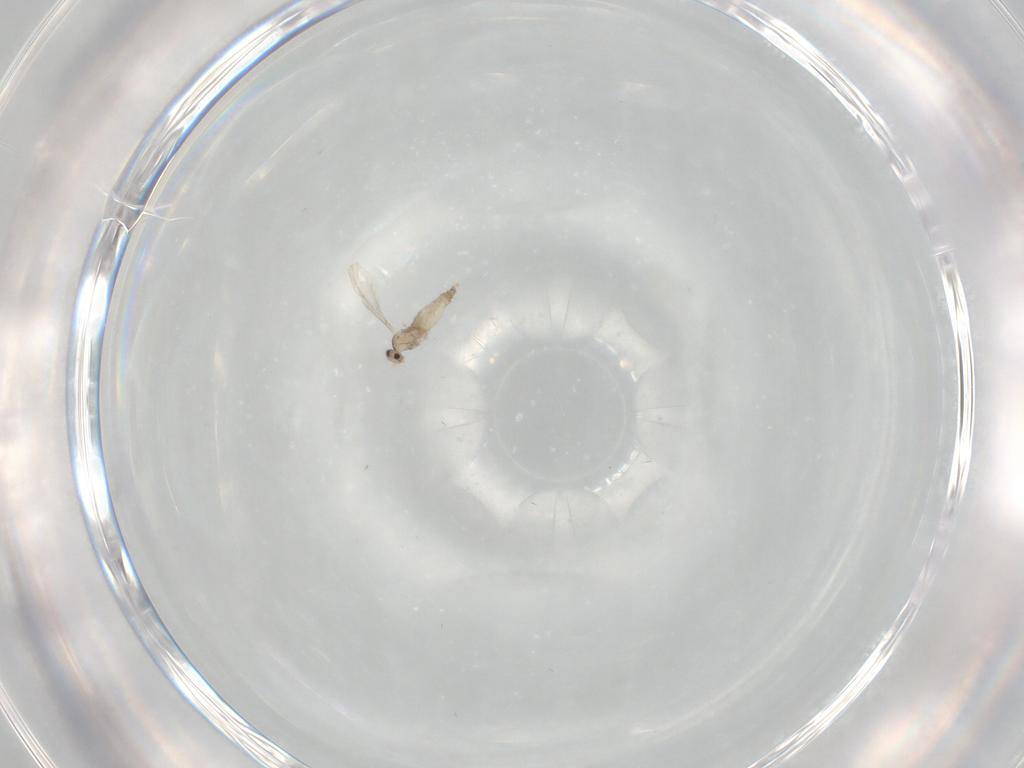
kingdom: Animalia
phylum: Arthropoda
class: Insecta
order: Diptera
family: Cecidomyiidae
